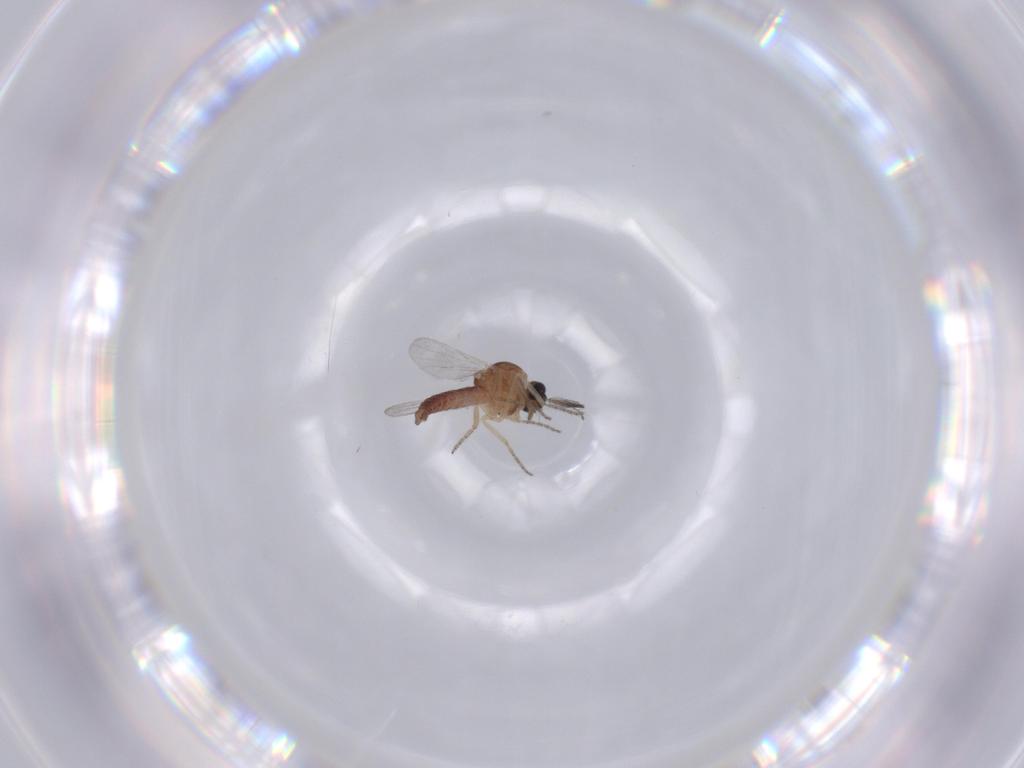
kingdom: Animalia
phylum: Arthropoda
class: Insecta
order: Diptera
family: Ceratopogonidae
